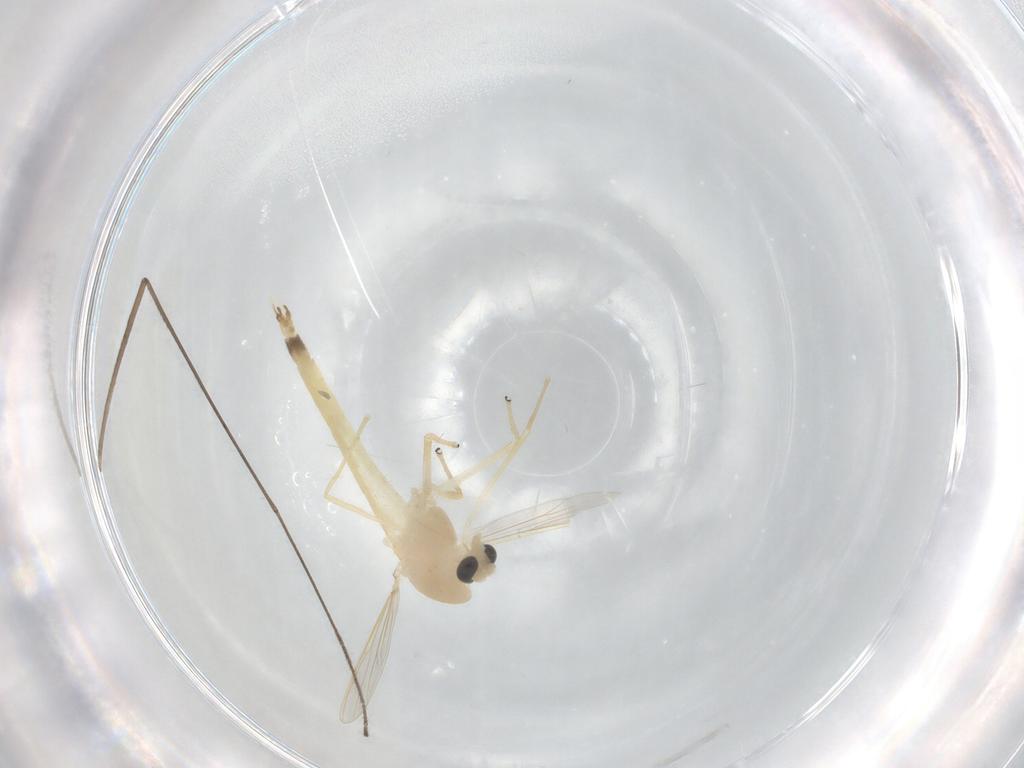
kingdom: Animalia
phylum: Arthropoda
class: Insecta
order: Diptera
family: Chironomidae
